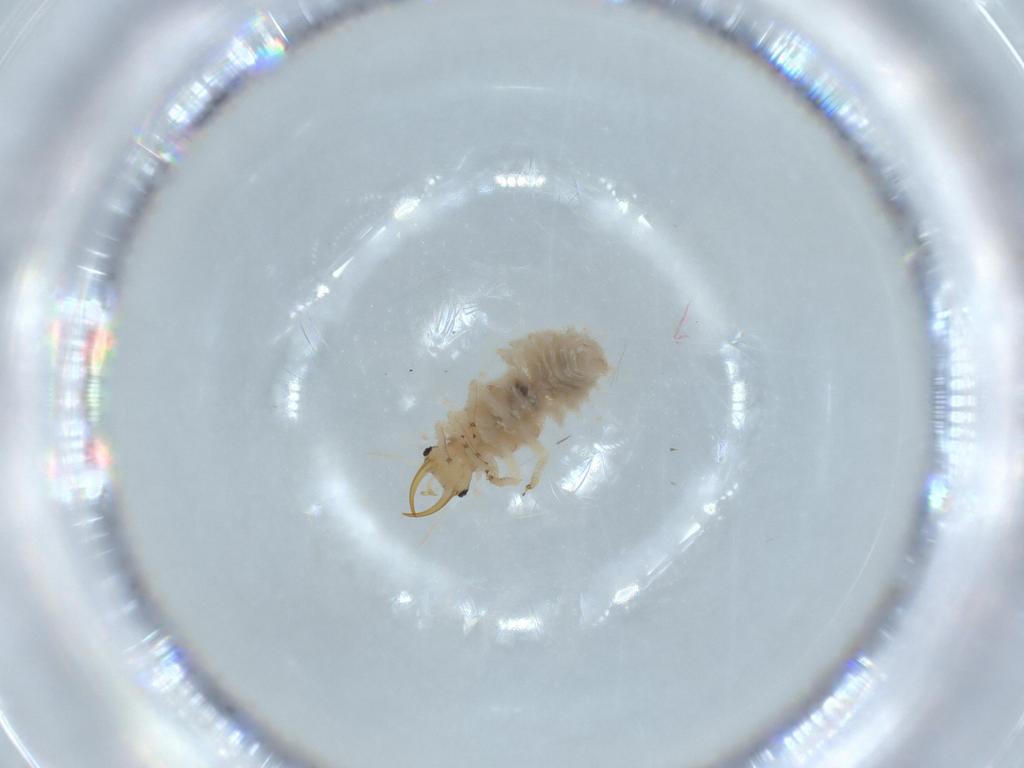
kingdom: Animalia
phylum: Arthropoda
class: Insecta
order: Neuroptera
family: Chrysopidae
